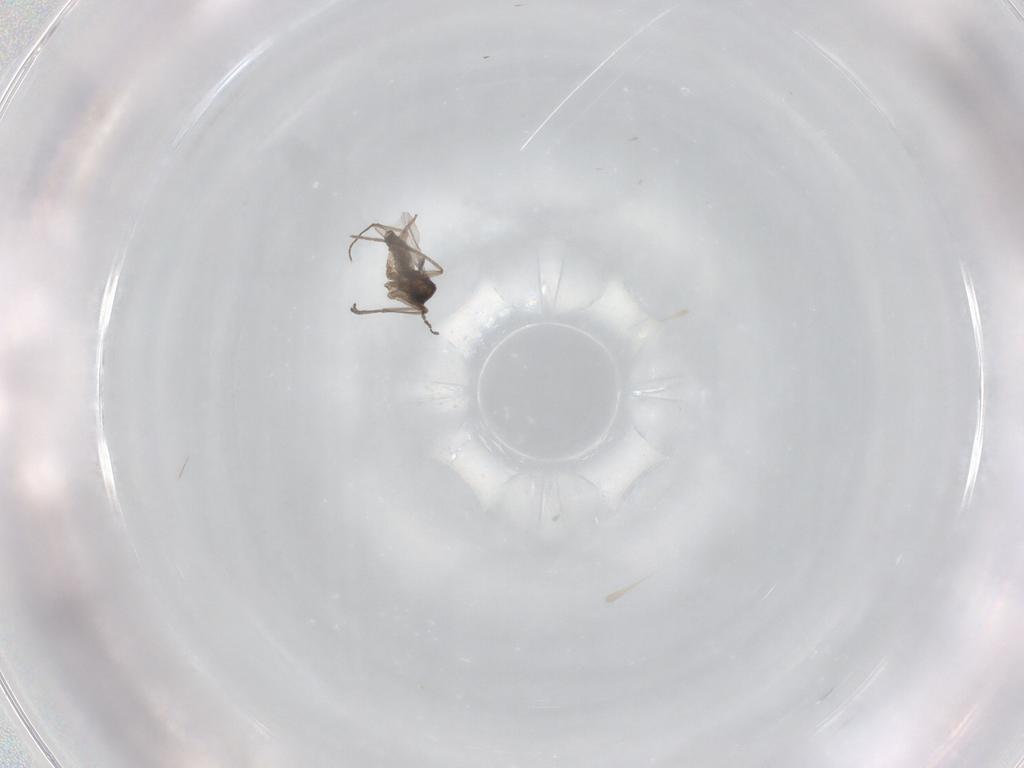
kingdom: Animalia
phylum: Arthropoda
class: Insecta
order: Diptera
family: Sciaridae
